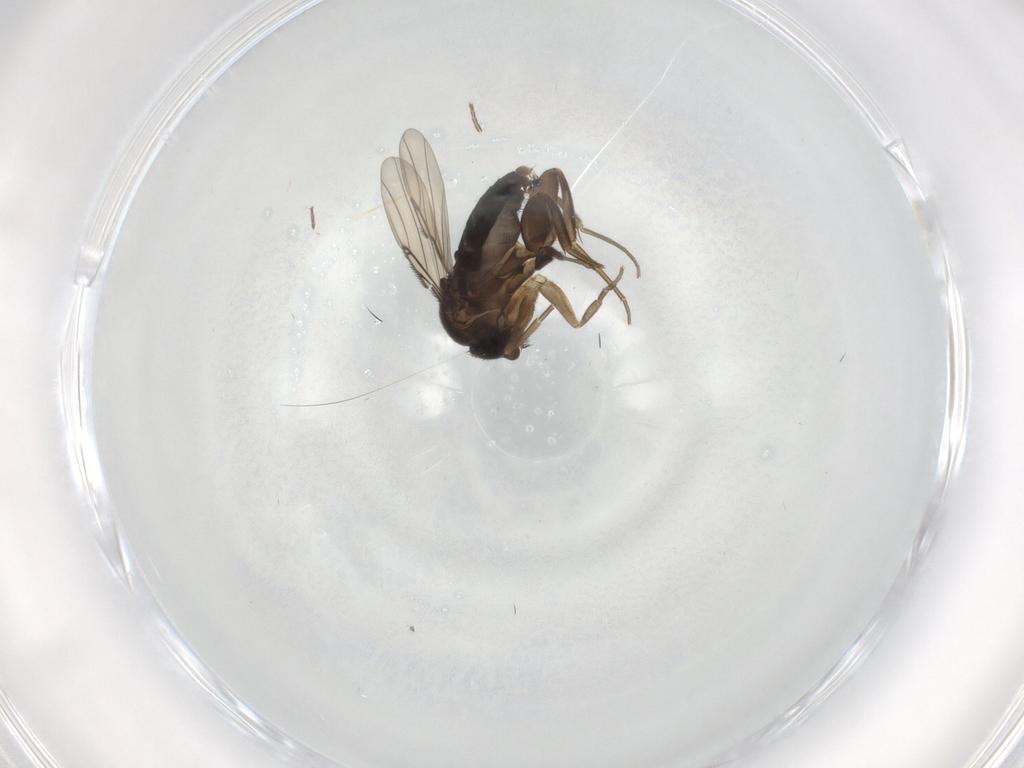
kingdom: Animalia
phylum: Arthropoda
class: Insecta
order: Diptera
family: Phoridae
